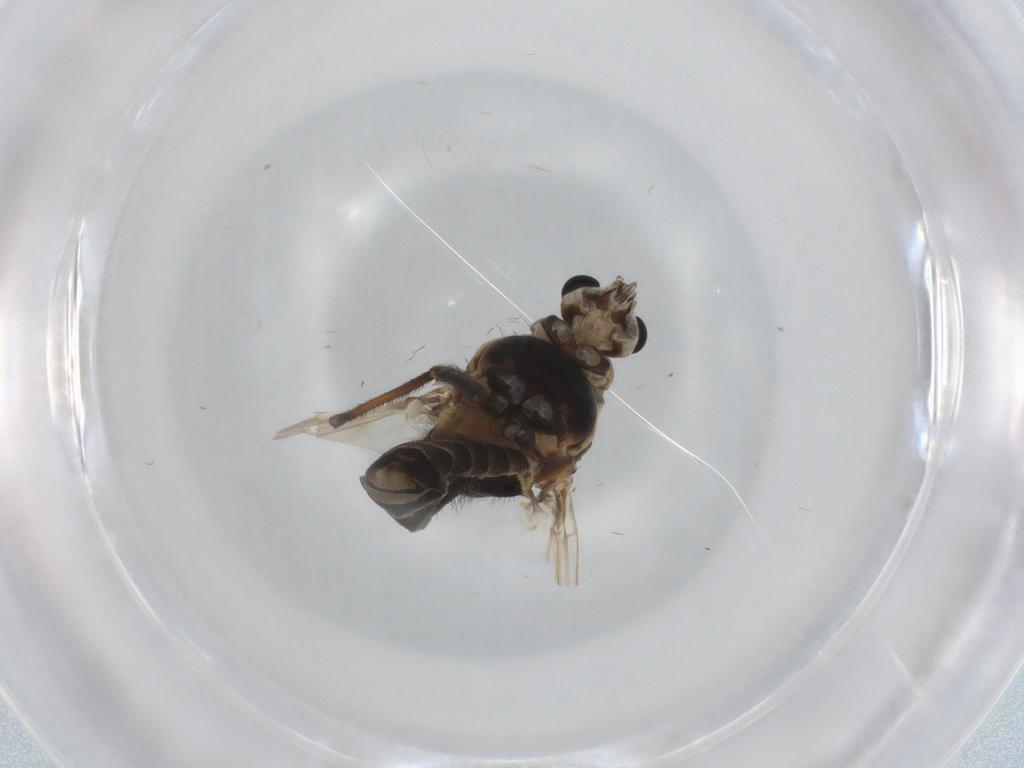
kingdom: Animalia
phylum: Arthropoda
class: Insecta
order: Diptera
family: Chironomidae
